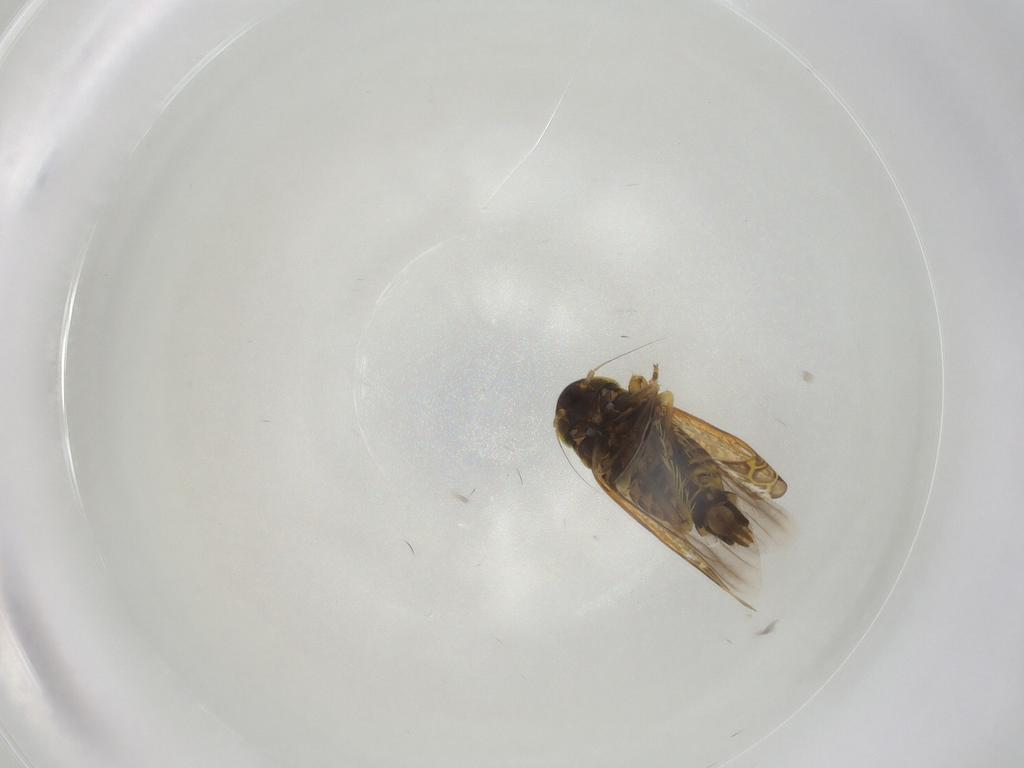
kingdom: Animalia
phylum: Arthropoda
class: Insecta
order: Hemiptera
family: Cicadellidae
